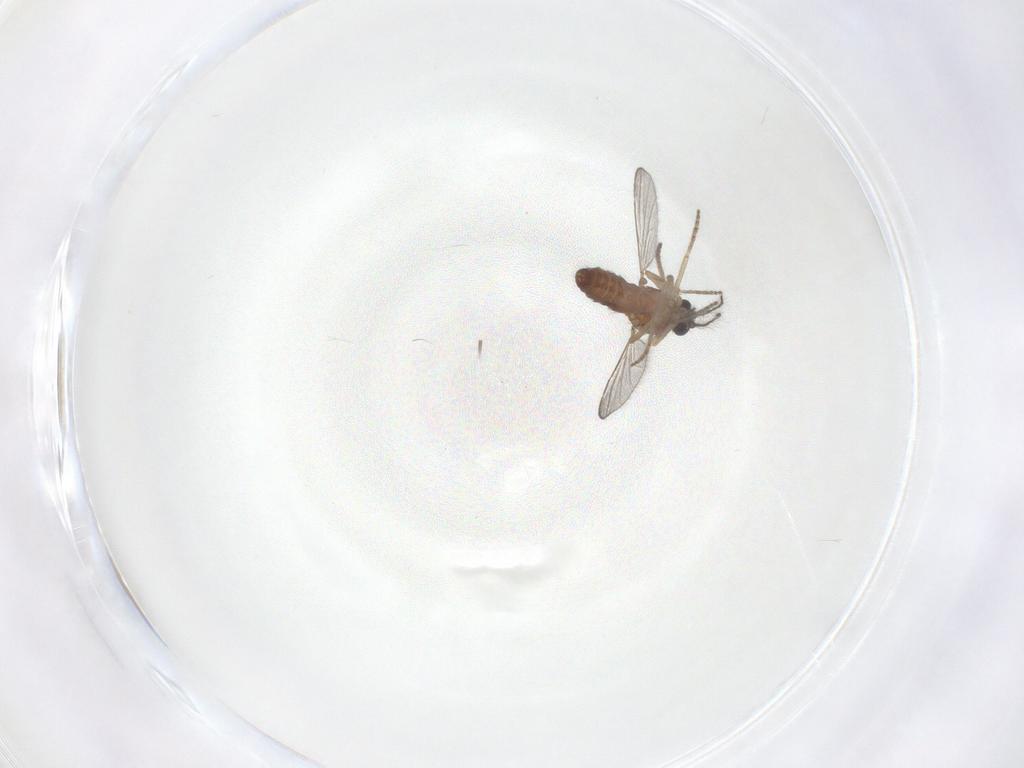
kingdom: Animalia
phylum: Arthropoda
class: Insecta
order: Diptera
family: Ceratopogonidae
